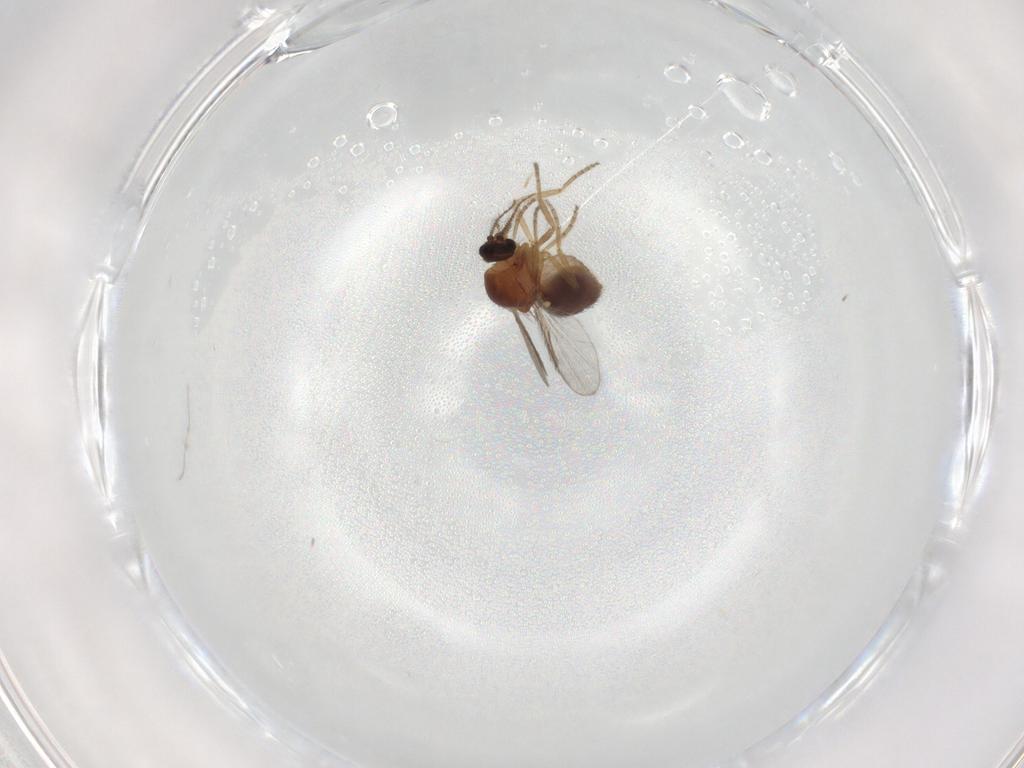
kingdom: Animalia
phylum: Arthropoda
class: Insecta
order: Diptera
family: Ceratopogonidae
